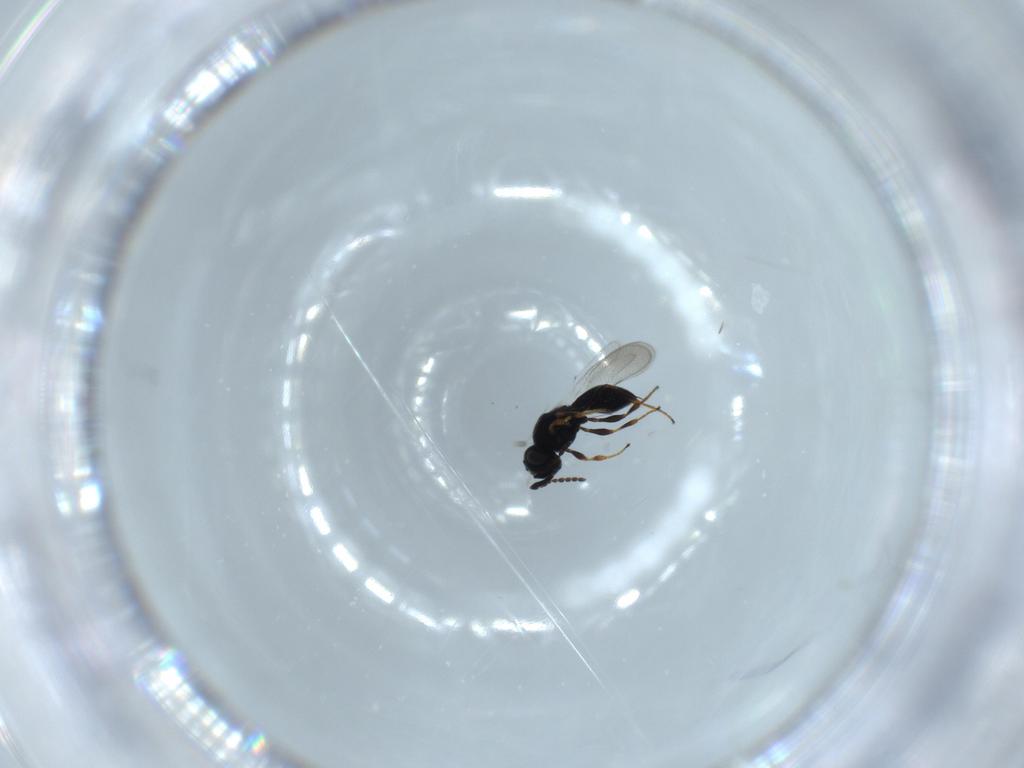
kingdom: Animalia
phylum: Arthropoda
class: Insecta
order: Hymenoptera
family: Platygastridae
